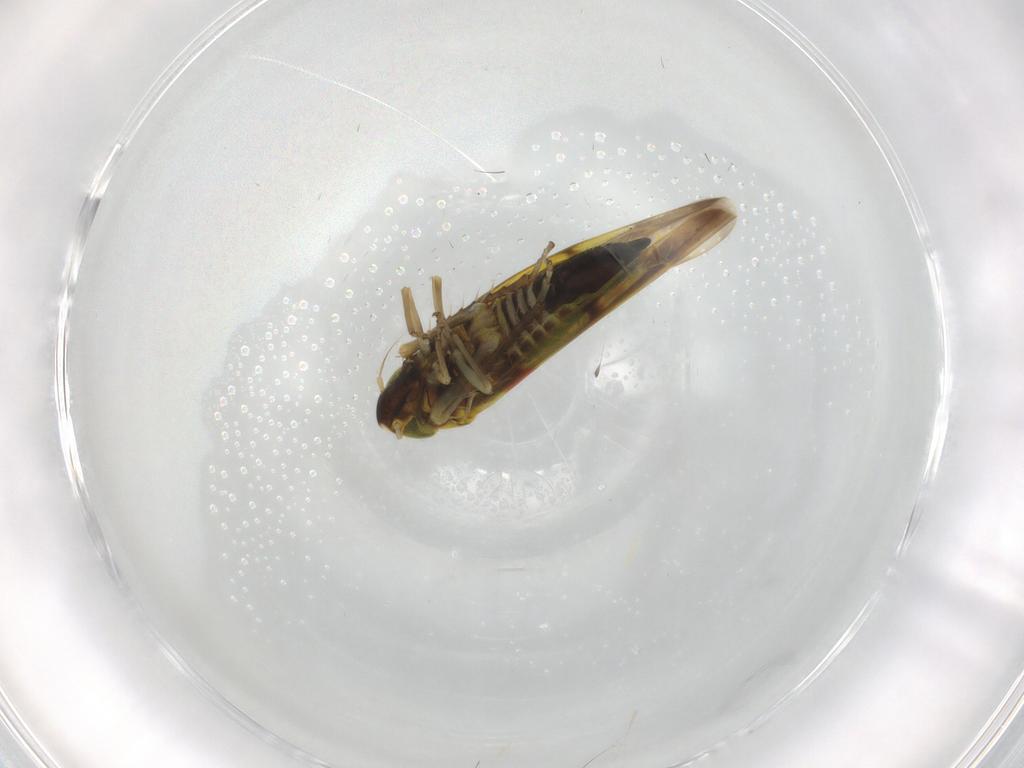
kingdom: Animalia
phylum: Arthropoda
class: Insecta
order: Hemiptera
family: Cicadellidae
